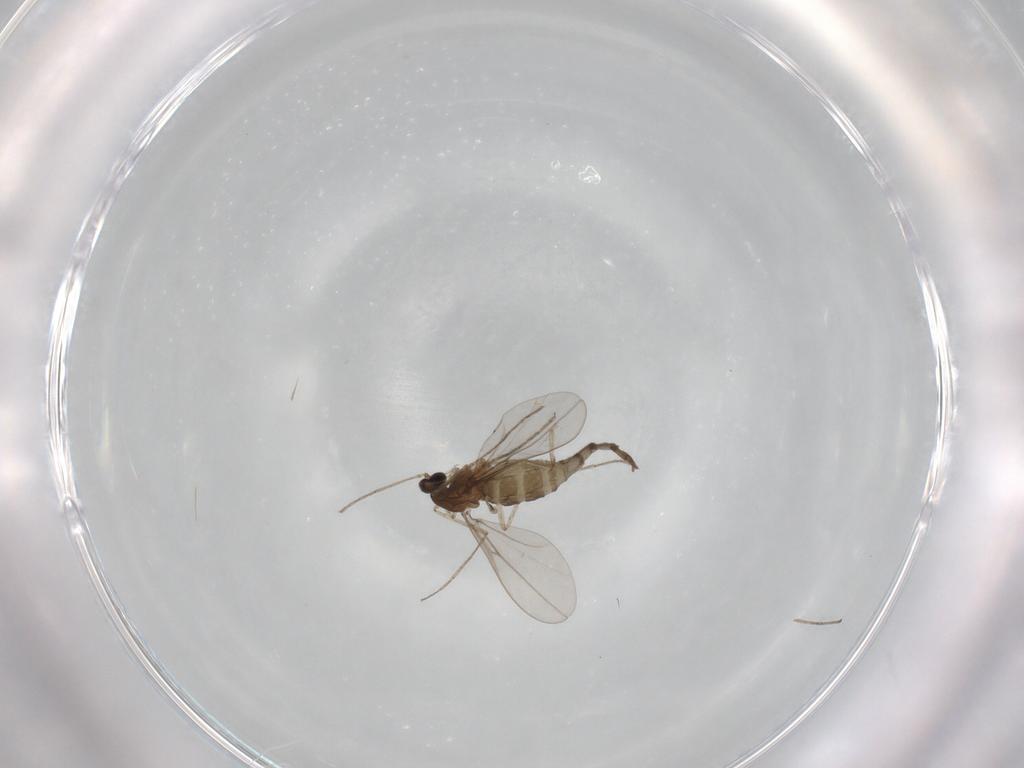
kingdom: Animalia
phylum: Arthropoda
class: Insecta
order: Diptera
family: Cecidomyiidae
